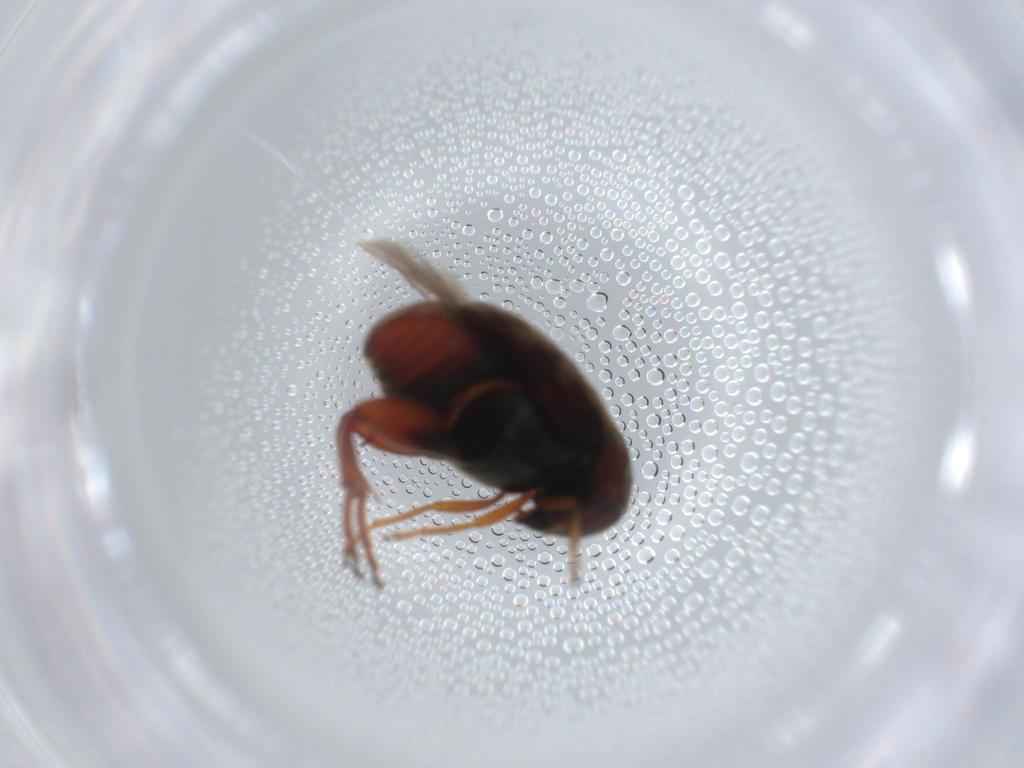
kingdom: Animalia
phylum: Arthropoda
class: Insecta
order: Coleoptera
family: Chrysomelidae
